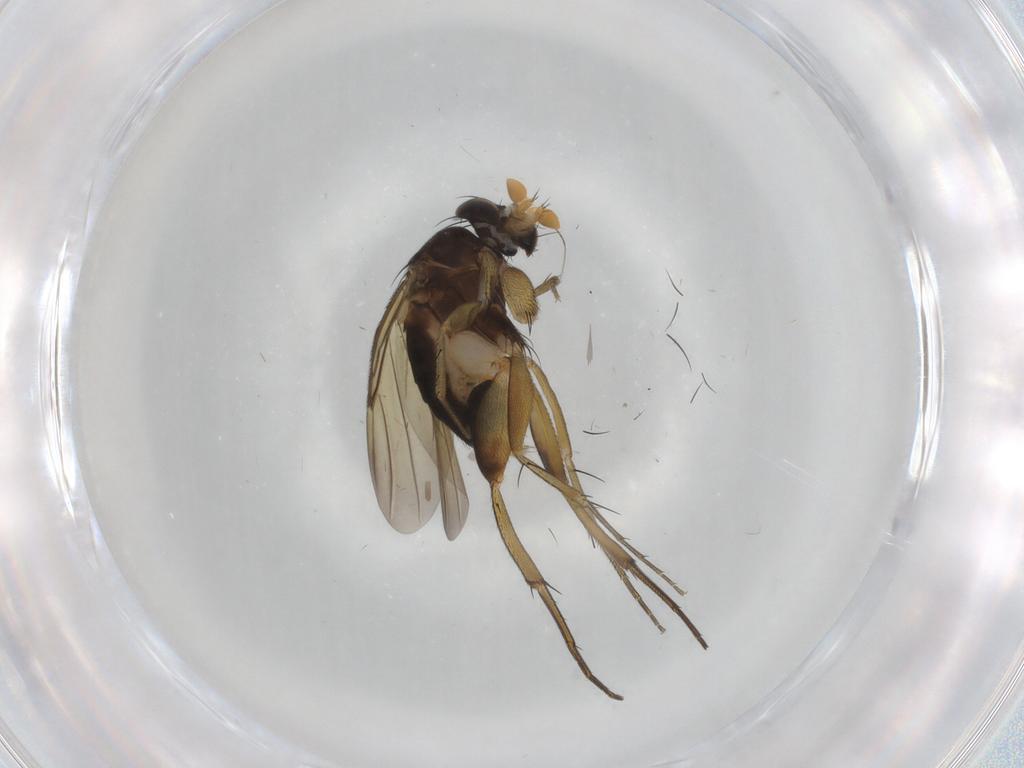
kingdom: Animalia
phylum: Arthropoda
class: Insecta
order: Diptera
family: Phoridae
